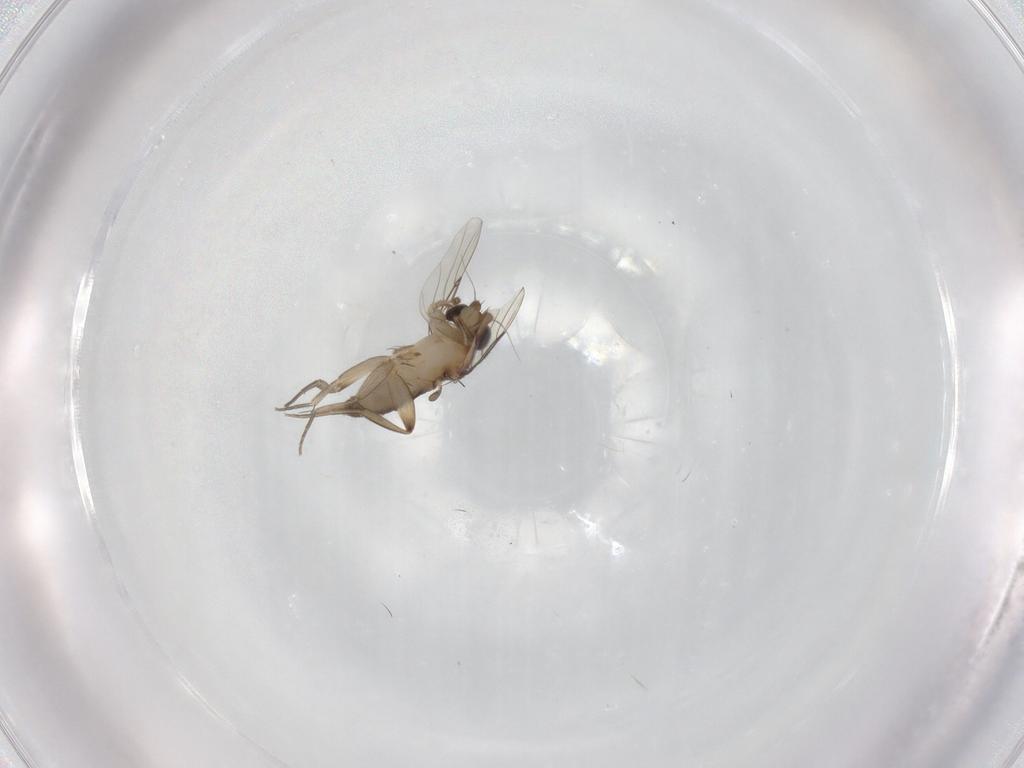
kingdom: Animalia
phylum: Arthropoda
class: Insecta
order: Diptera
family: Phoridae
